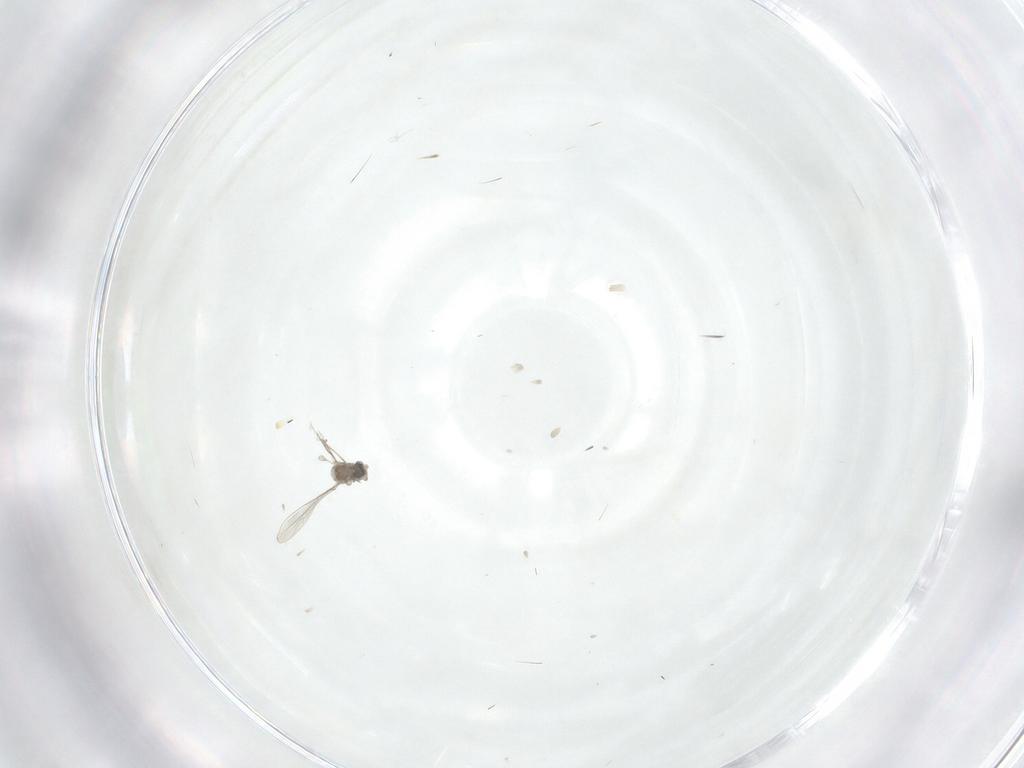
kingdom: Animalia
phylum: Arthropoda
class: Insecta
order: Diptera
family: Cecidomyiidae
